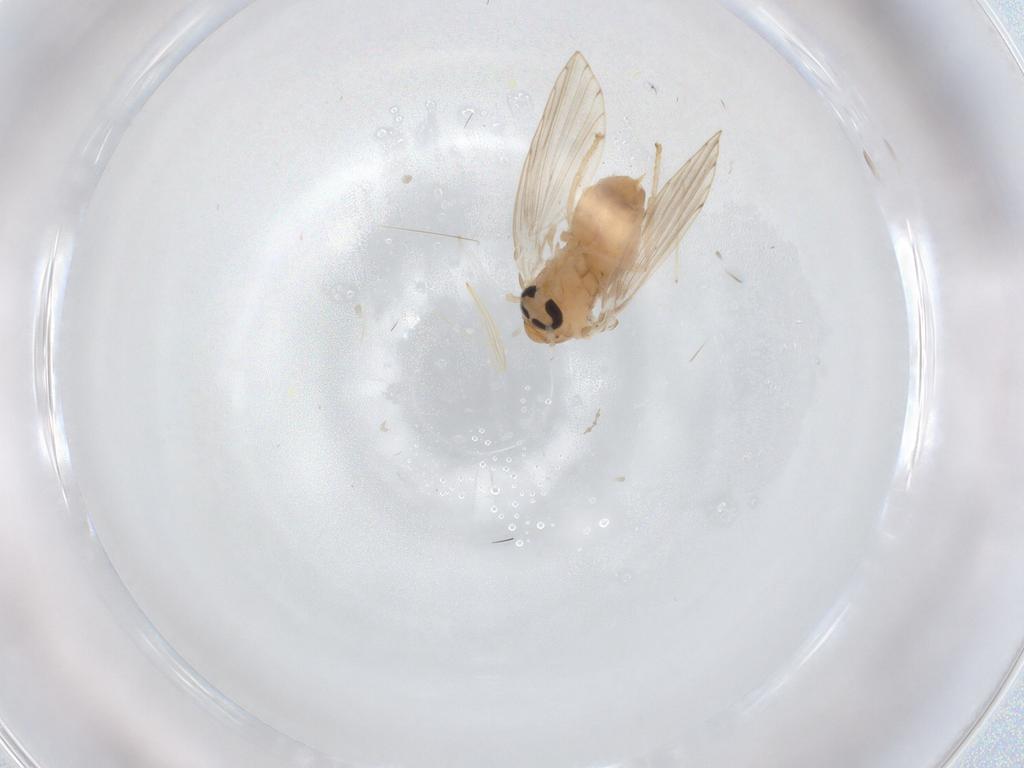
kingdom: Animalia
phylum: Arthropoda
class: Insecta
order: Diptera
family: Cecidomyiidae
